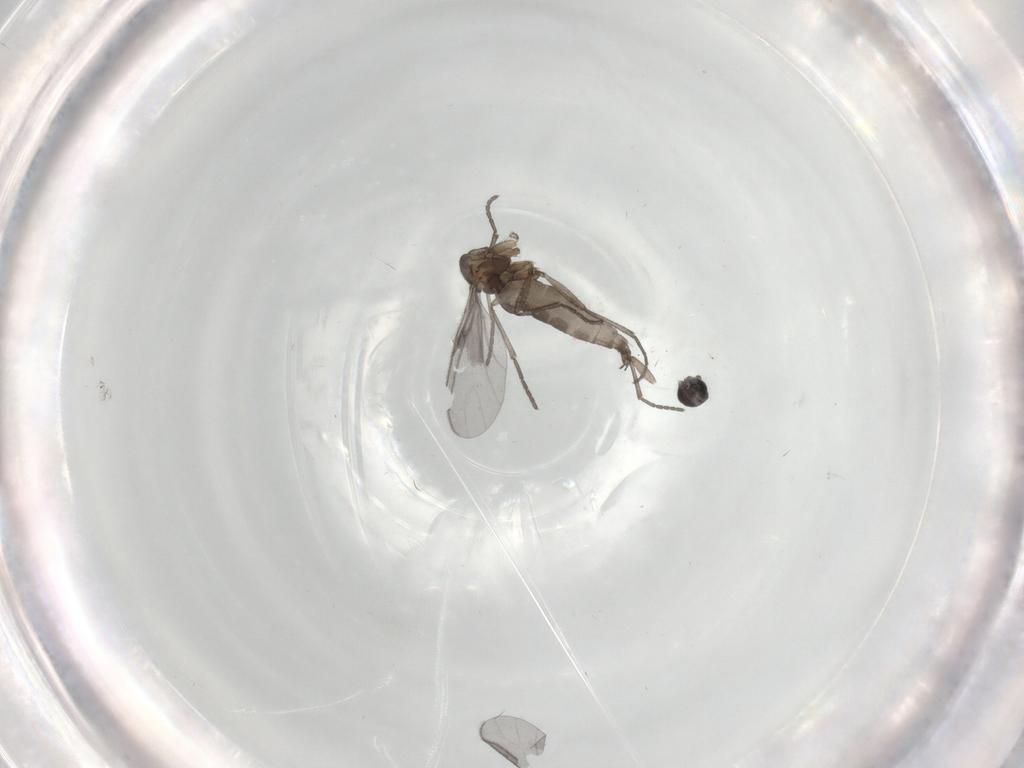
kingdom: Animalia
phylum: Arthropoda
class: Insecta
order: Diptera
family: Sciaridae
